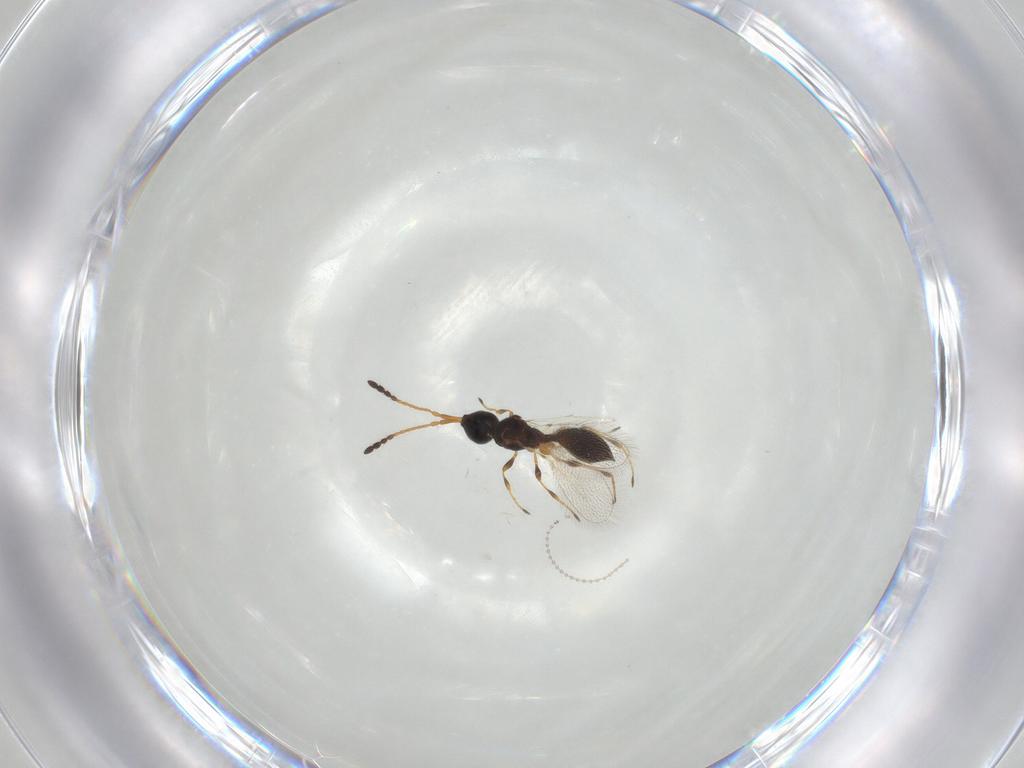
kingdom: Animalia
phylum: Arthropoda
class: Insecta
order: Hymenoptera
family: Diapriidae
